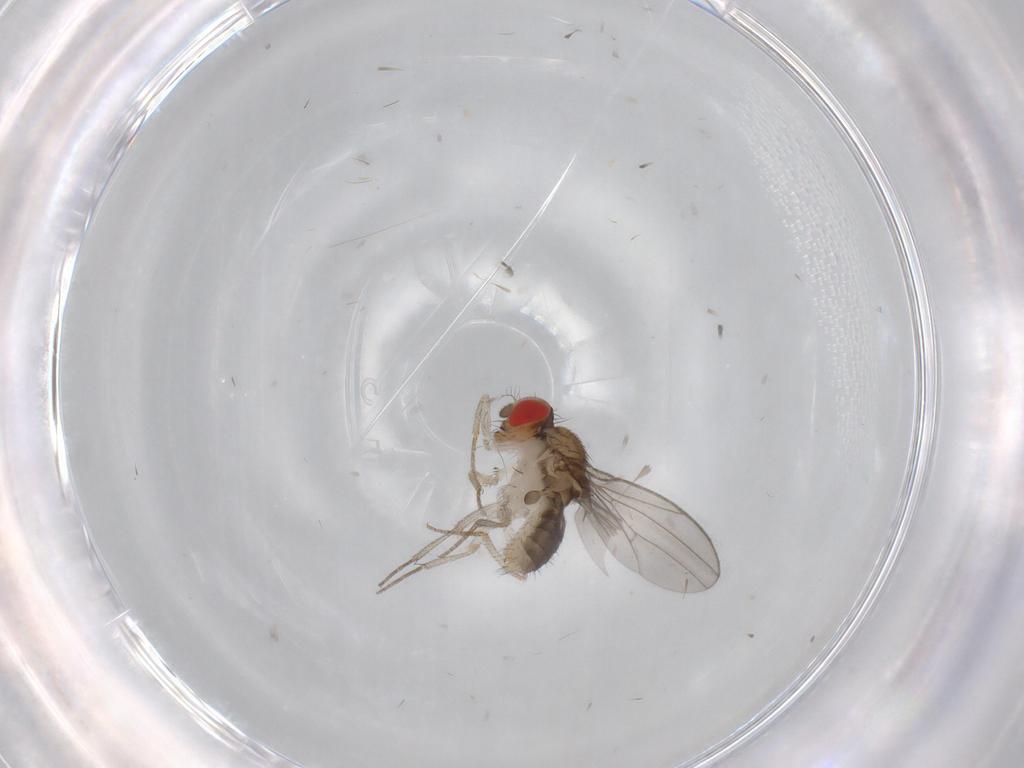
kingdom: Animalia
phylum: Arthropoda
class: Insecta
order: Diptera
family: Drosophilidae
